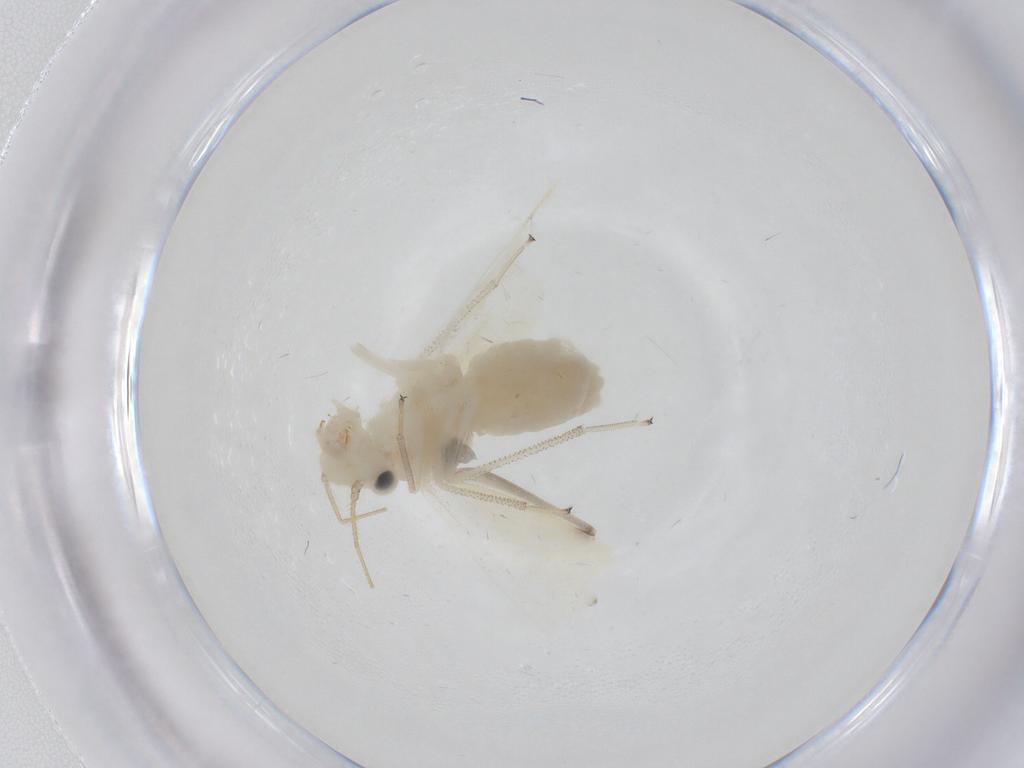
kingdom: Animalia
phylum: Arthropoda
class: Insecta
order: Psocodea
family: Caeciliusidae
